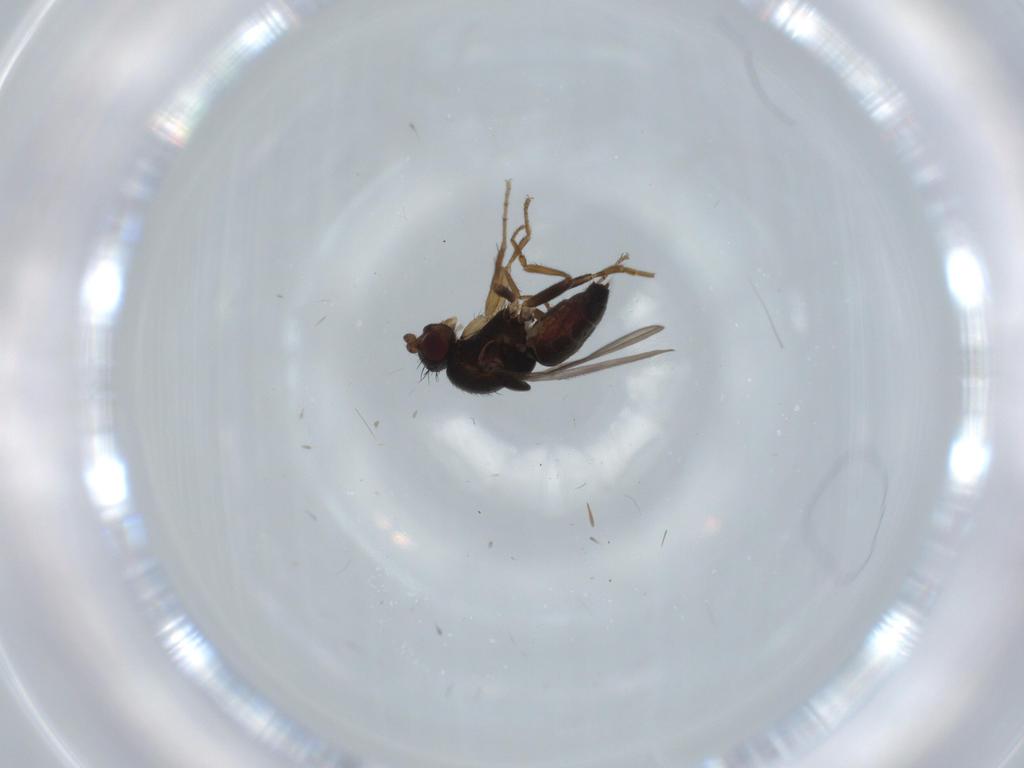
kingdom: Animalia
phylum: Arthropoda
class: Insecta
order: Diptera
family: Sphaeroceridae
